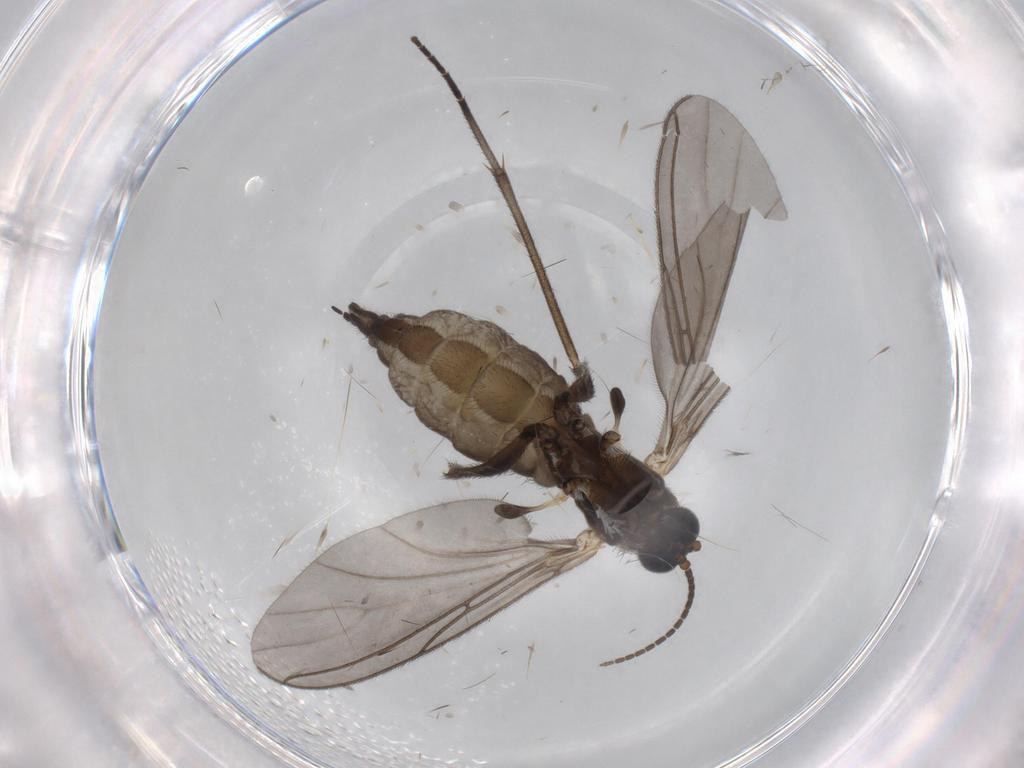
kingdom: Animalia
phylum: Arthropoda
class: Insecta
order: Diptera
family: Sciaridae
